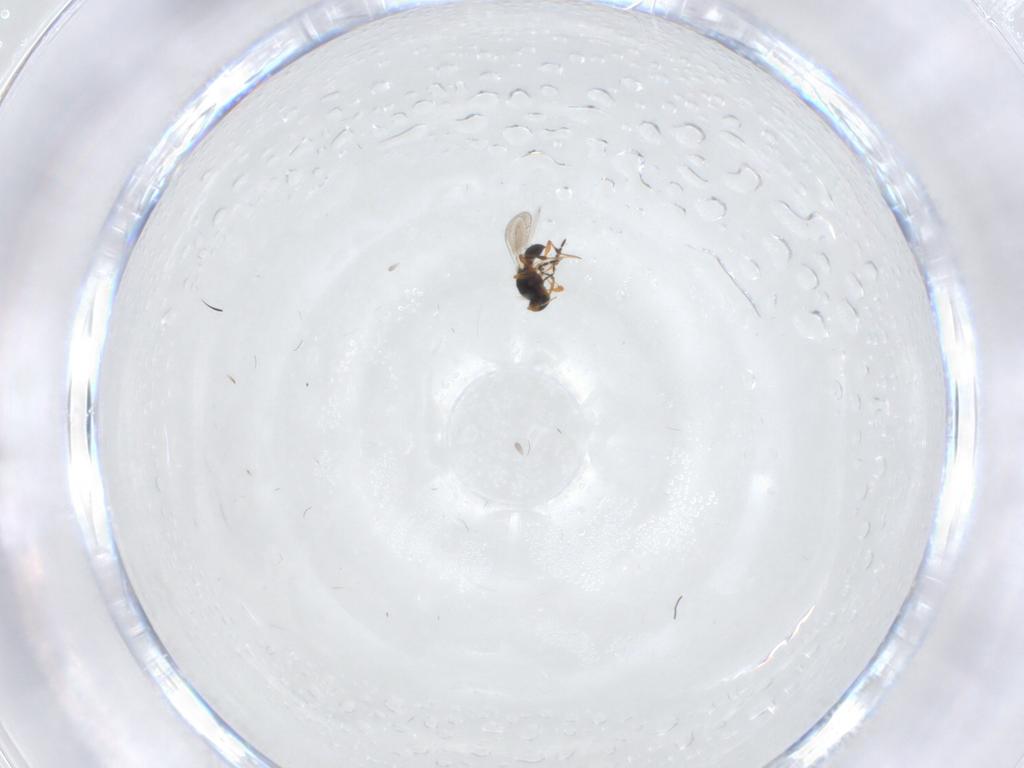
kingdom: Animalia
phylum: Arthropoda
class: Insecta
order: Hymenoptera
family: Platygastridae
